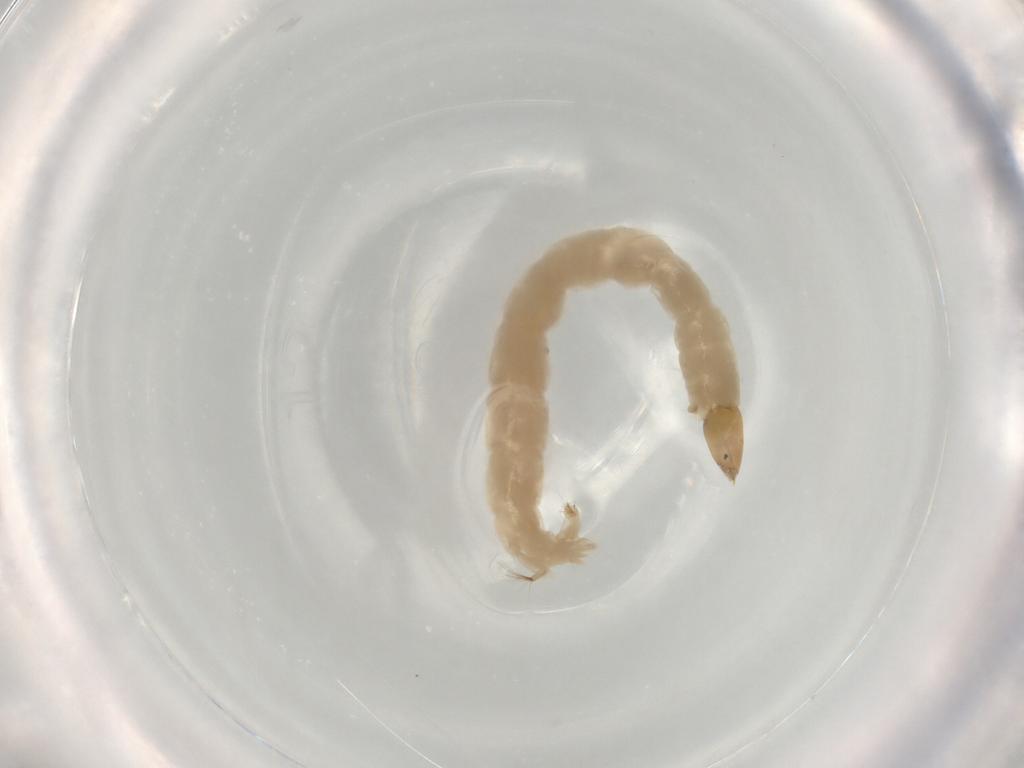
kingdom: Animalia
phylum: Arthropoda
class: Insecta
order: Diptera
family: Chironomidae
